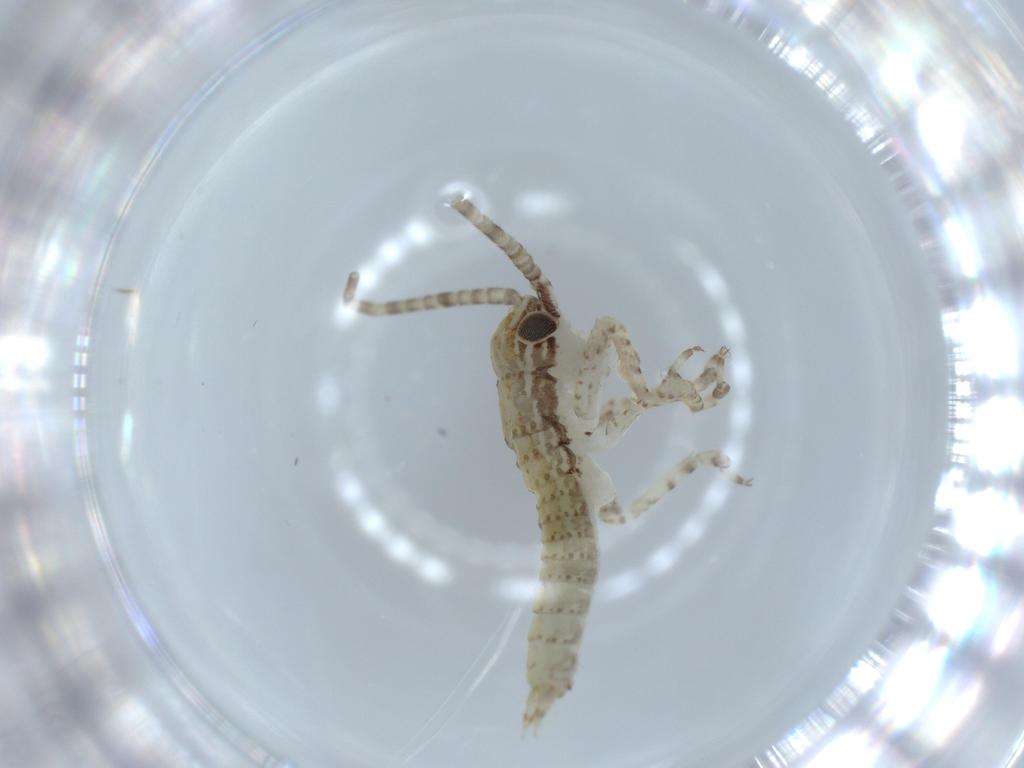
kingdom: Animalia
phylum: Arthropoda
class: Insecta
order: Orthoptera
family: Gryllidae
